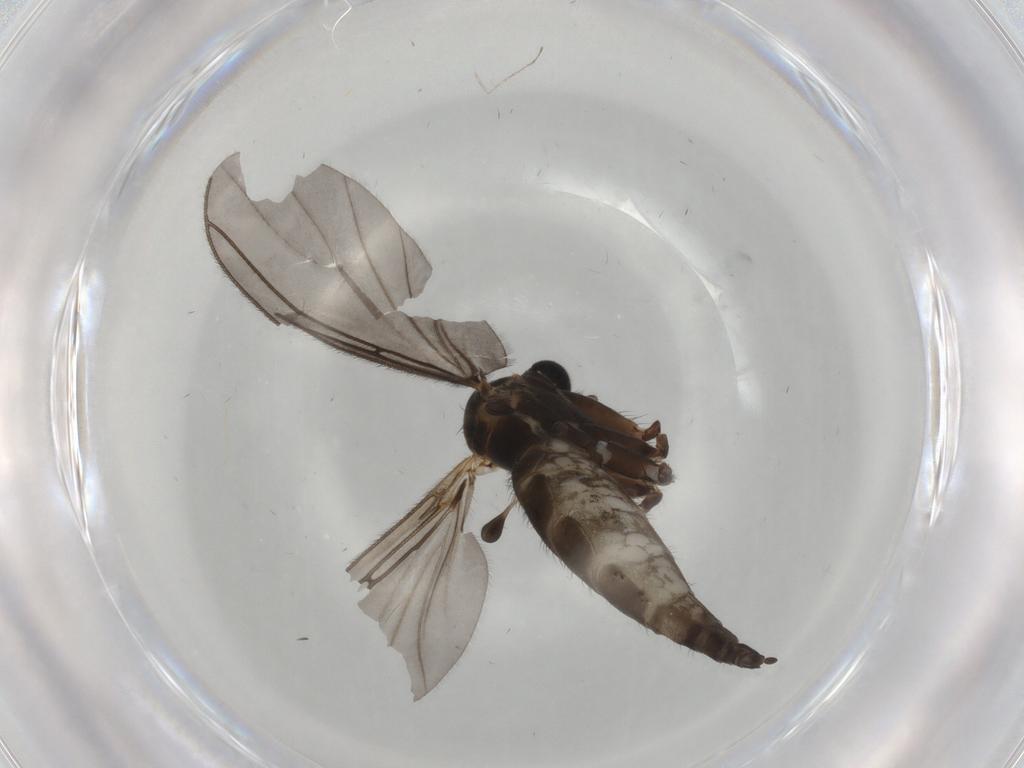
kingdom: Animalia
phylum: Arthropoda
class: Insecta
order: Diptera
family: Sciaridae
